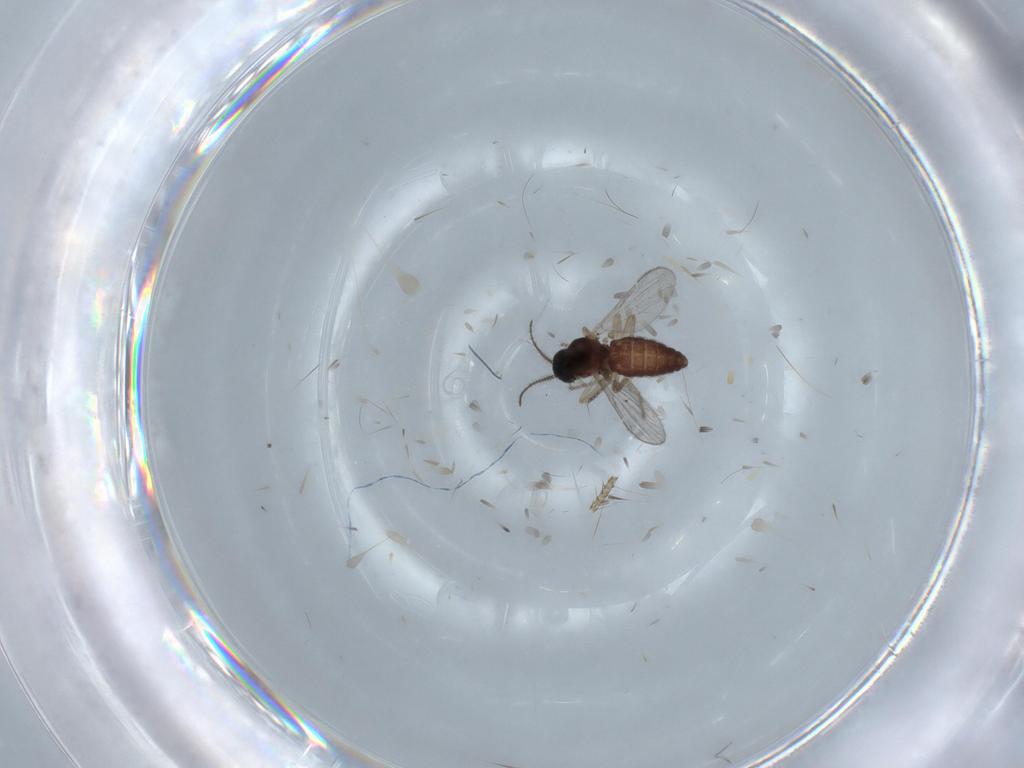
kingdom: Animalia
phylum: Arthropoda
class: Insecta
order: Diptera
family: Ceratopogonidae
